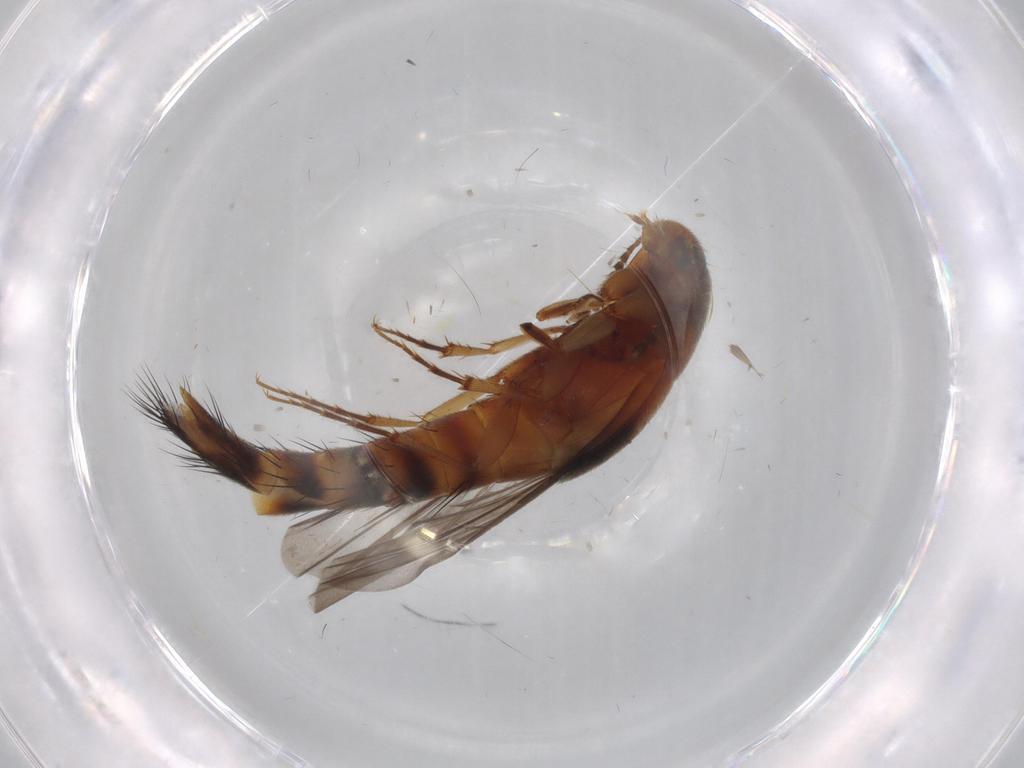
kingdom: Animalia
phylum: Arthropoda
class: Insecta
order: Coleoptera
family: Staphylinidae
